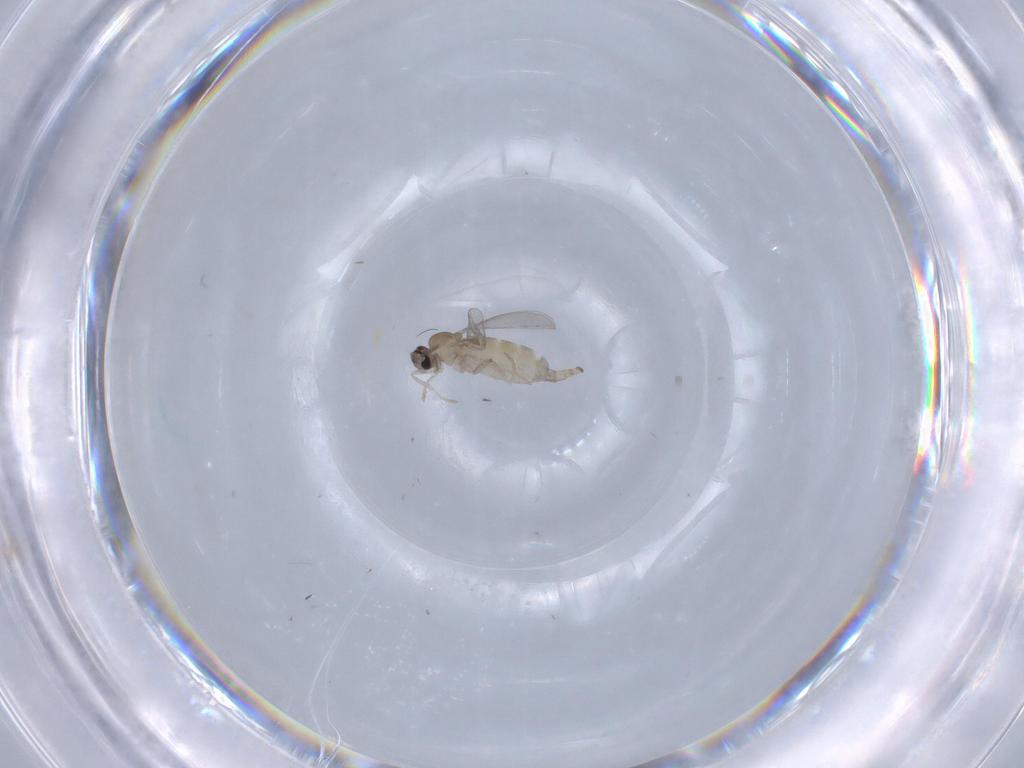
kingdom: Animalia
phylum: Arthropoda
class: Insecta
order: Diptera
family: Cecidomyiidae
